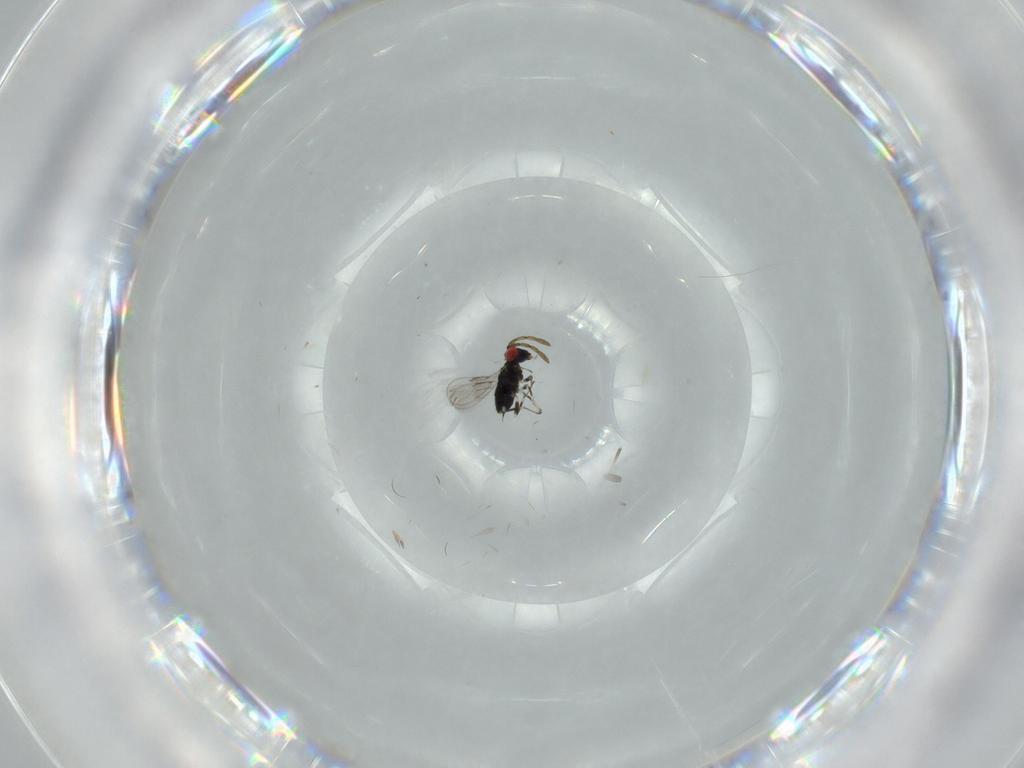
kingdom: Animalia
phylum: Arthropoda
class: Insecta
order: Hymenoptera
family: Azotidae
